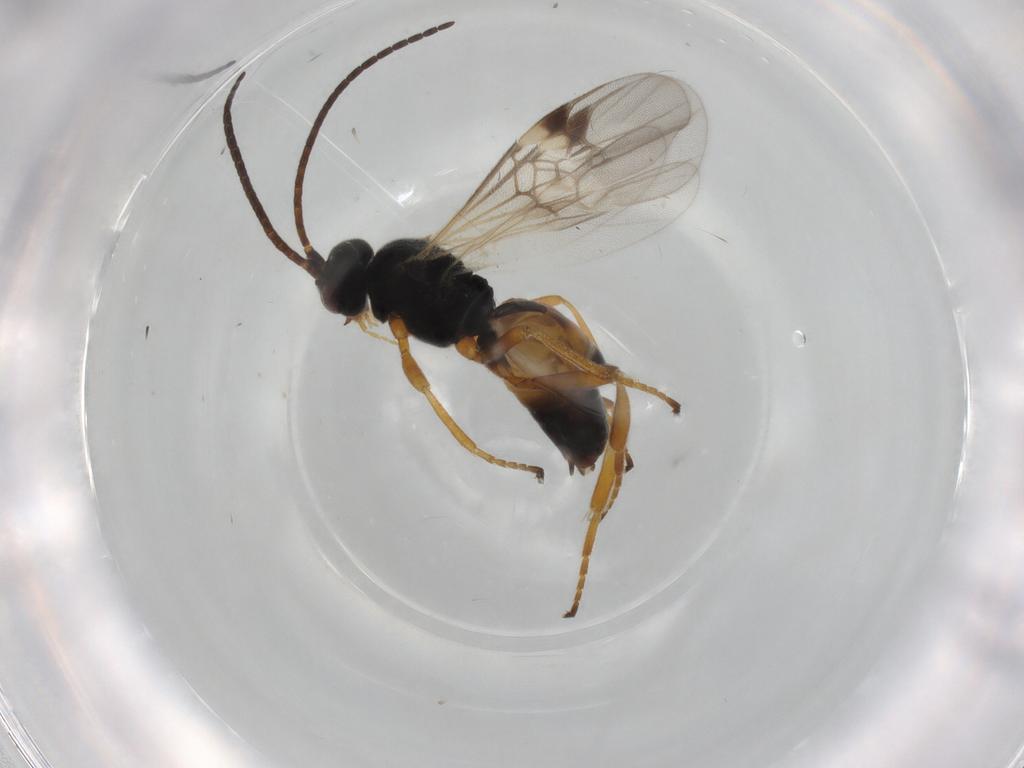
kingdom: Animalia
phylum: Arthropoda
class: Insecta
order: Hymenoptera
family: Braconidae
